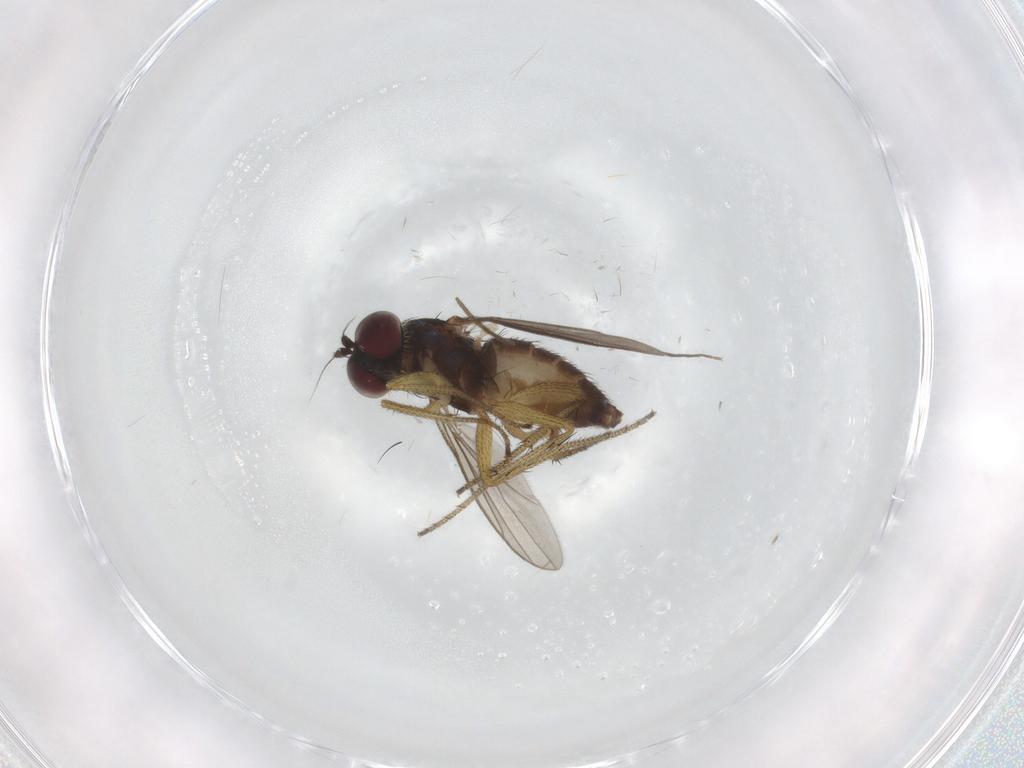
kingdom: Animalia
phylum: Arthropoda
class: Insecta
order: Diptera
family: Chironomidae
